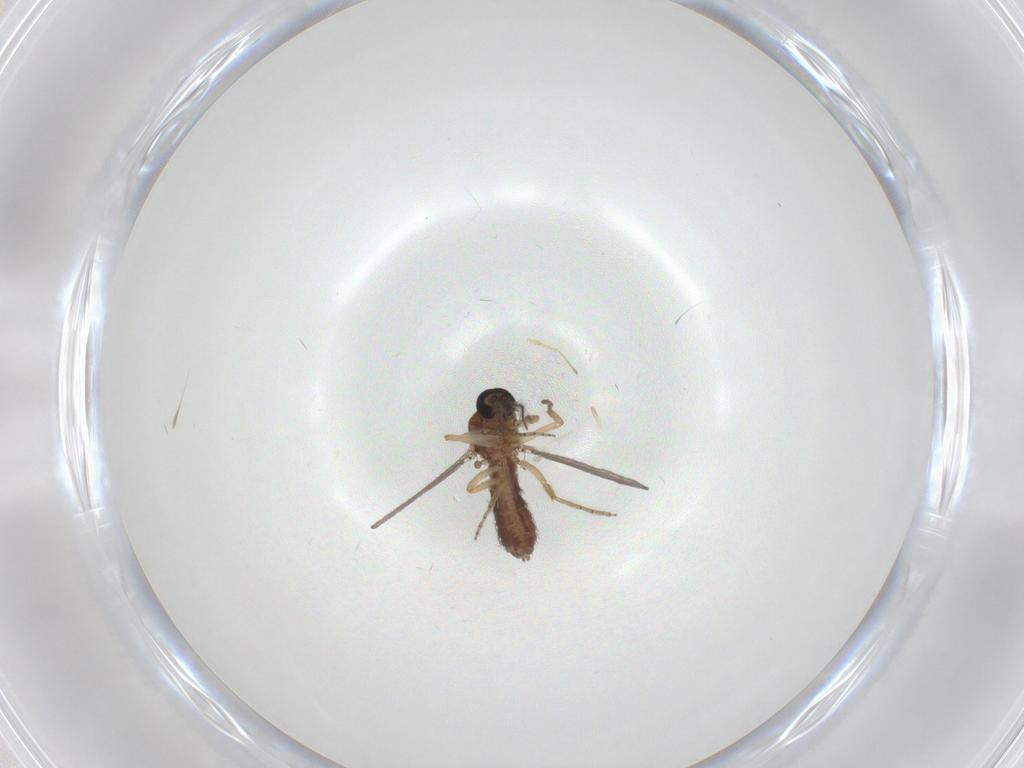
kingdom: Animalia
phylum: Arthropoda
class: Insecta
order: Diptera
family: Ceratopogonidae
